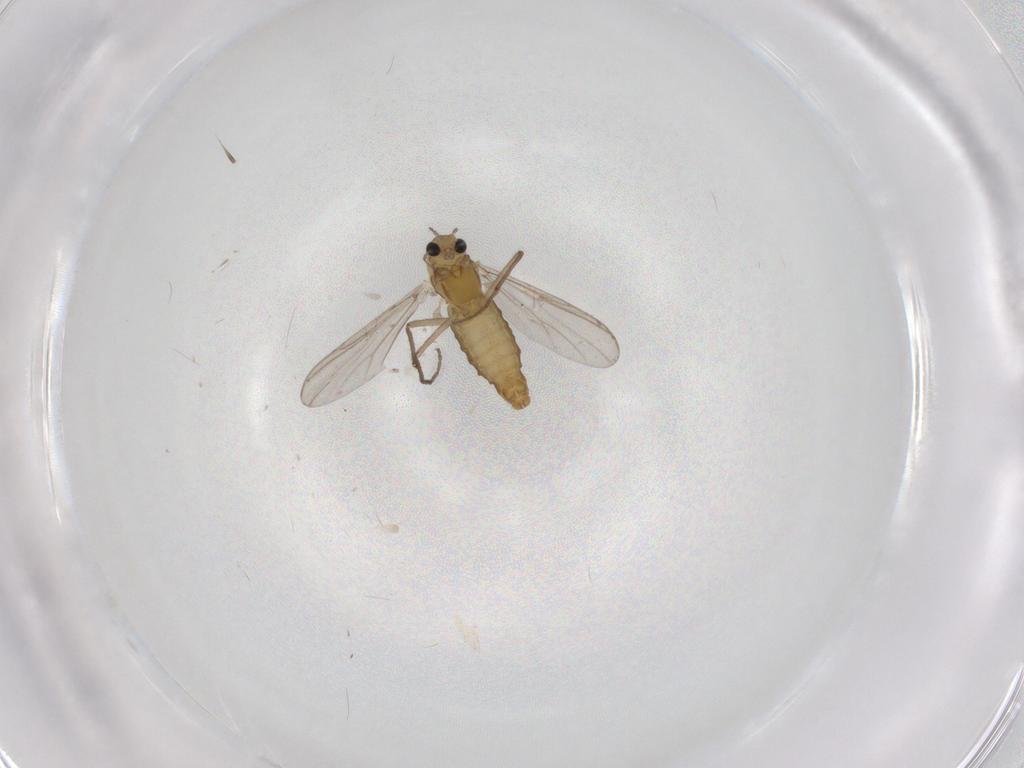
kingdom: Animalia
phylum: Arthropoda
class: Insecta
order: Diptera
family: Chironomidae
